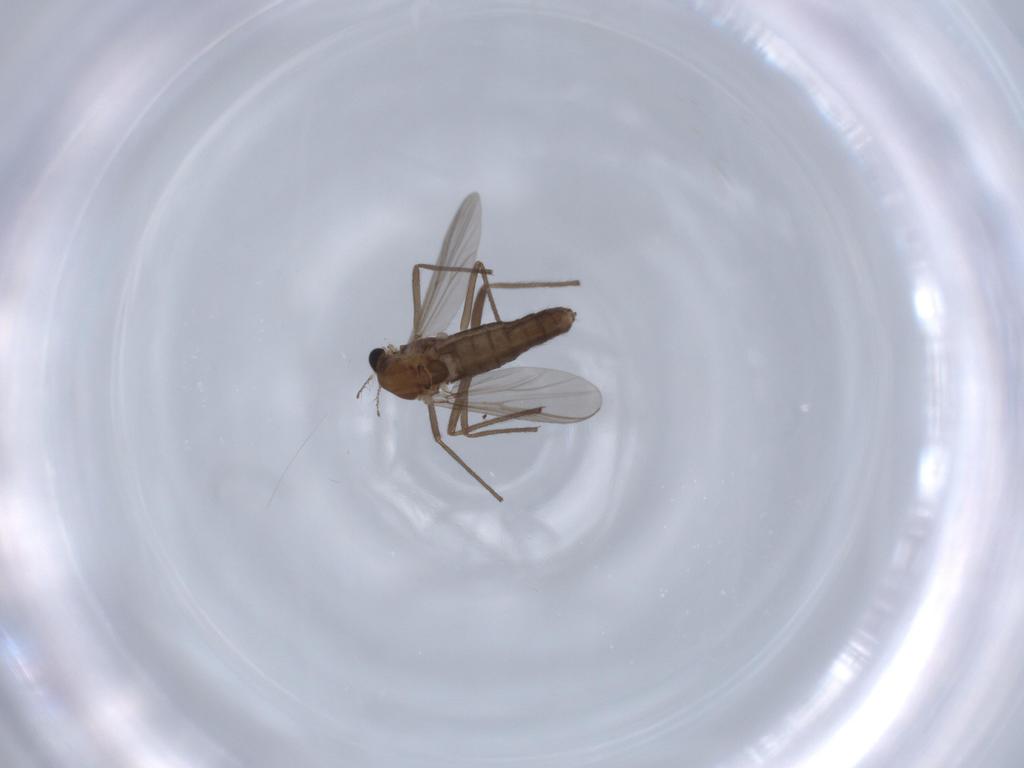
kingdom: Animalia
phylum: Arthropoda
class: Insecta
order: Diptera
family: Chironomidae
